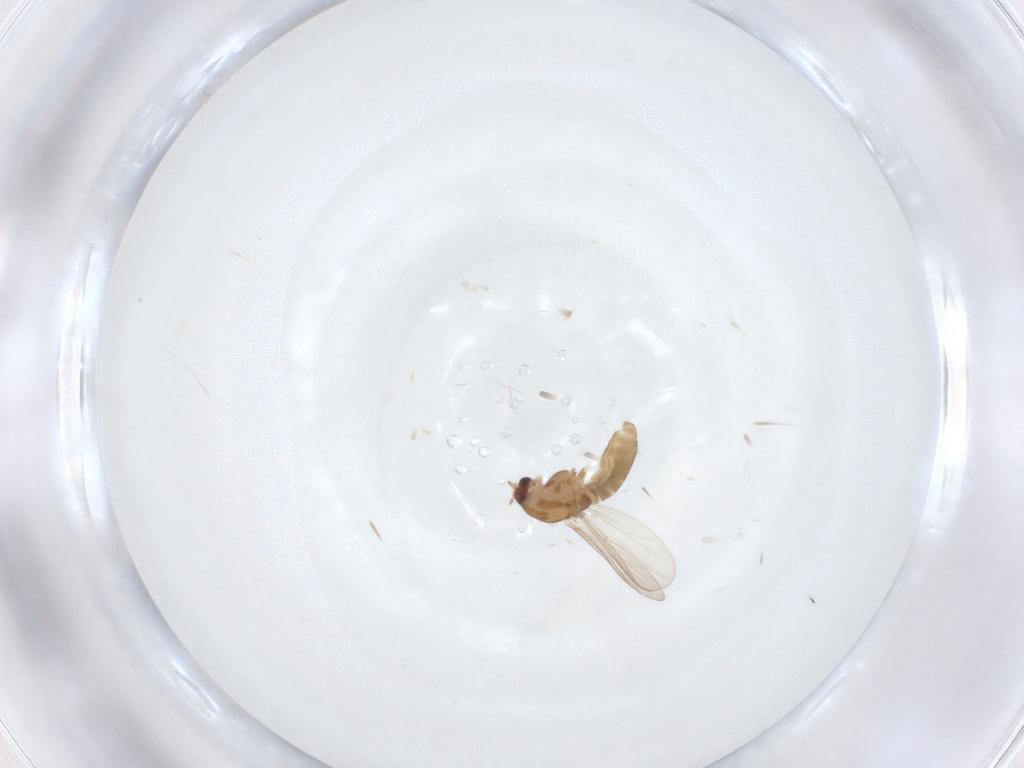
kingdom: Animalia
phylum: Arthropoda
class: Insecta
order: Diptera
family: Chironomidae
